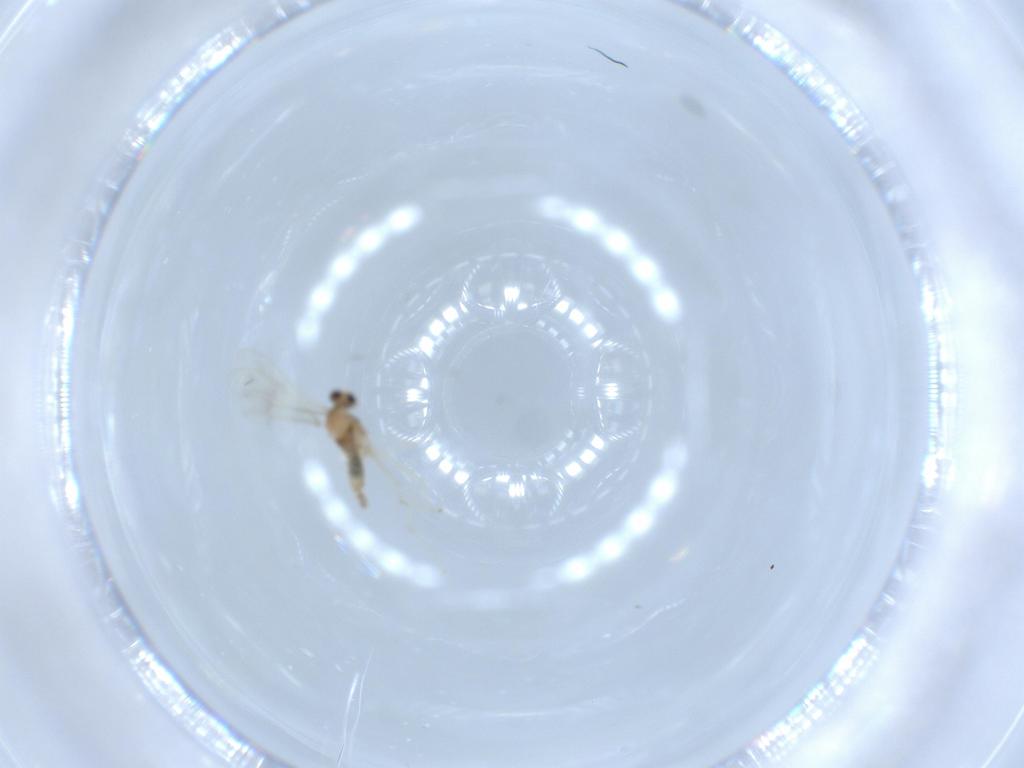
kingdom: Animalia
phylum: Arthropoda
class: Insecta
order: Diptera
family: Cecidomyiidae
